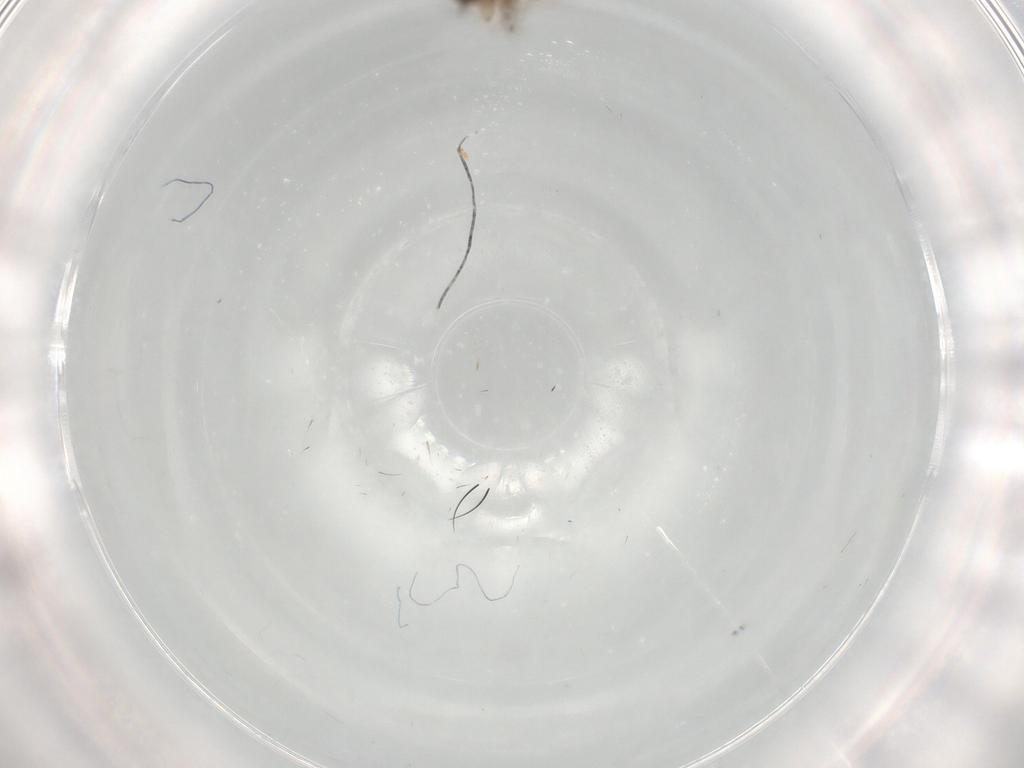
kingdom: Animalia
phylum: Arthropoda
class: Insecta
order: Diptera
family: Ceratopogonidae
